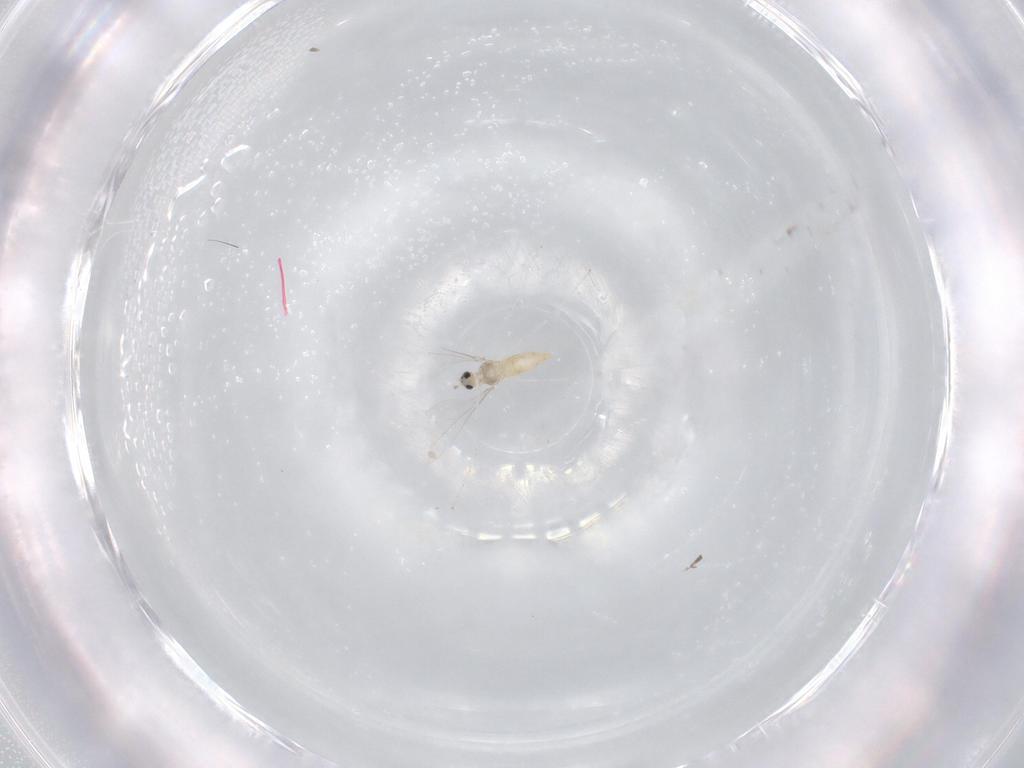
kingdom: Animalia
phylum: Arthropoda
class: Insecta
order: Diptera
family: Cecidomyiidae
